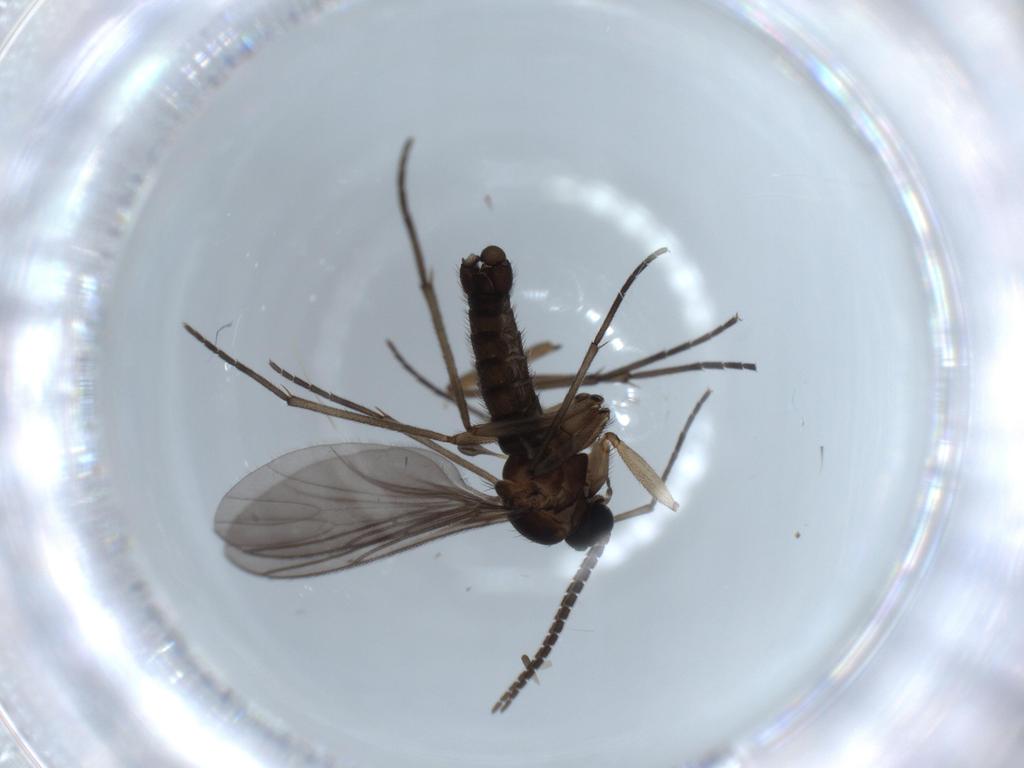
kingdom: Animalia
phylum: Arthropoda
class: Insecta
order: Diptera
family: Sciaridae
